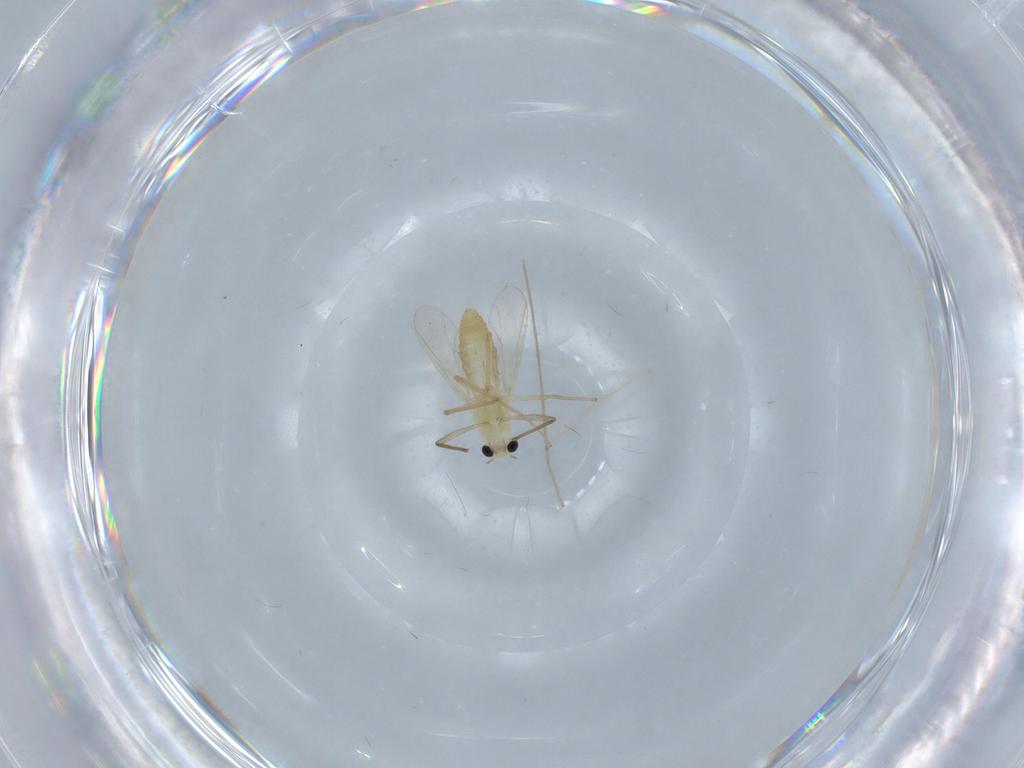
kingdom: Animalia
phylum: Arthropoda
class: Insecta
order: Diptera
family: Chironomidae
